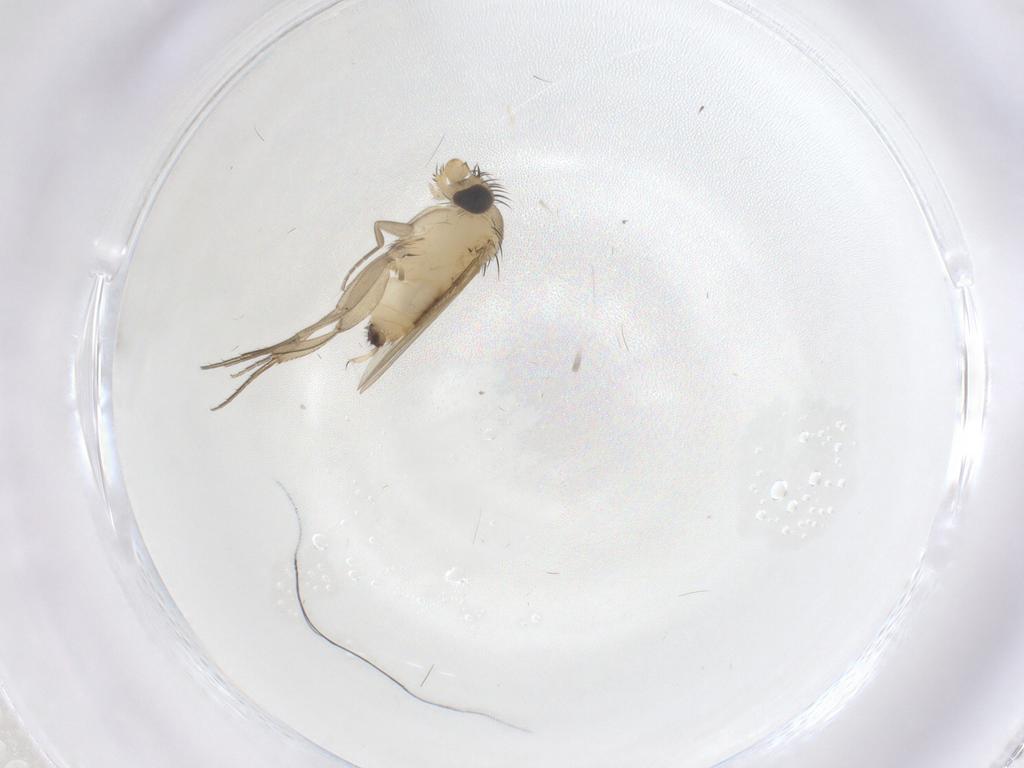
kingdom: Animalia
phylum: Arthropoda
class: Insecta
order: Diptera
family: Phoridae
